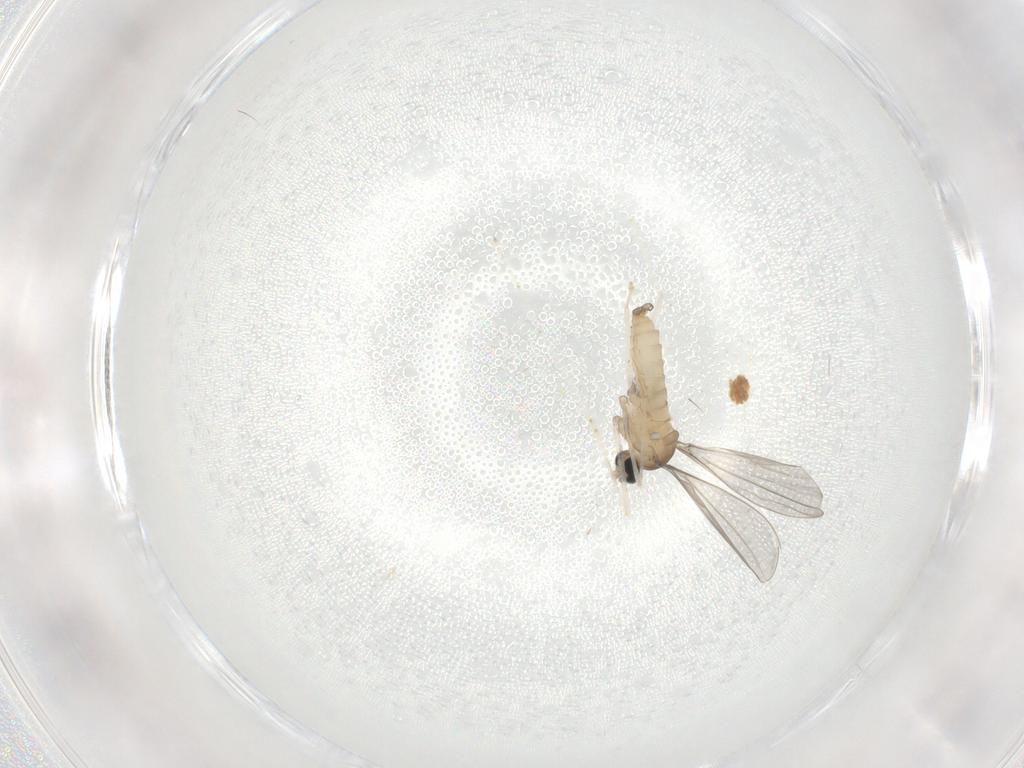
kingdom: Animalia
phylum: Arthropoda
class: Insecta
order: Diptera
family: Cecidomyiidae
